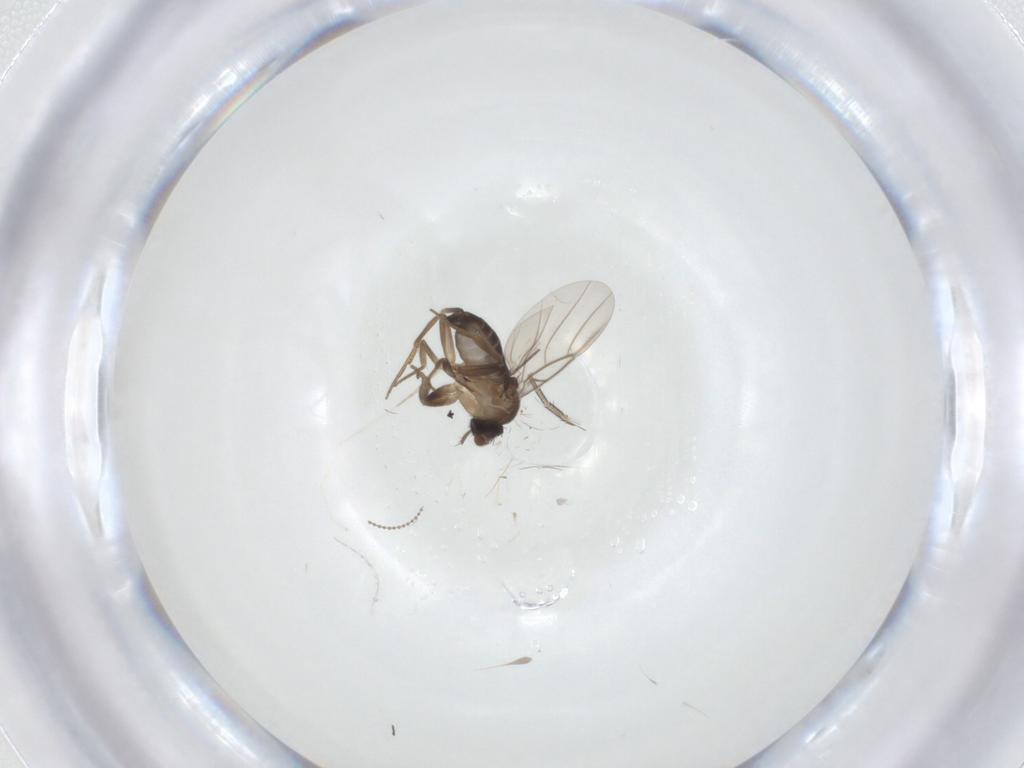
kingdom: Animalia
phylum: Arthropoda
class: Insecta
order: Diptera
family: Phoridae
